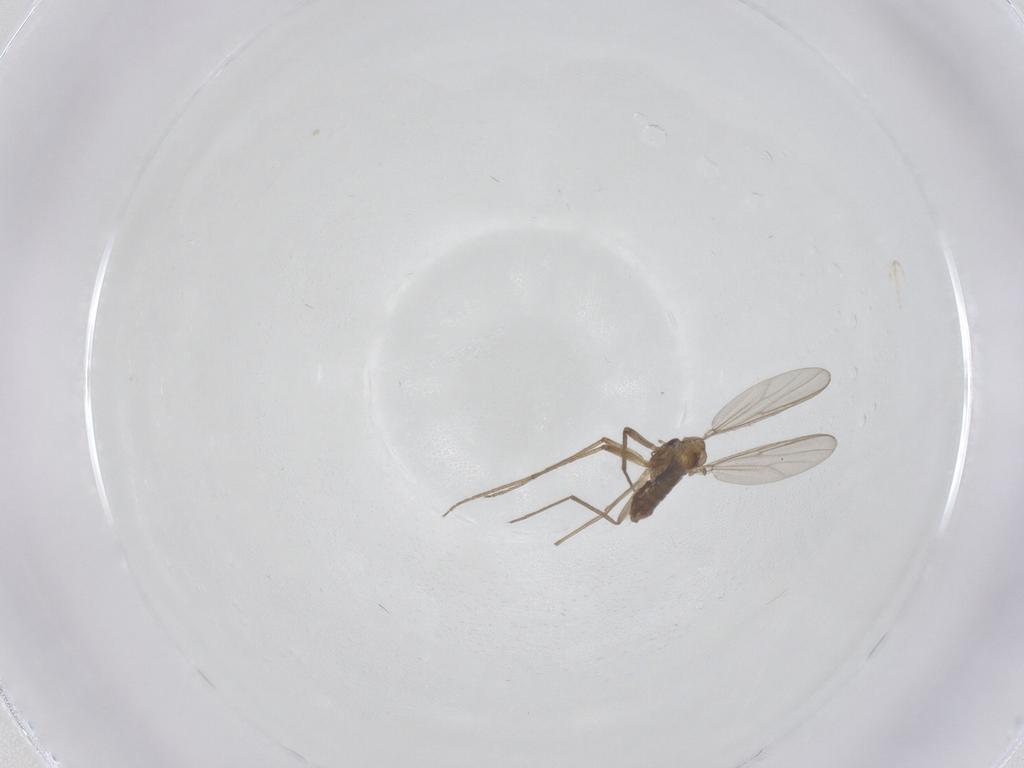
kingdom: Animalia
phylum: Arthropoda
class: Insecta
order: Diptera
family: Chironomidae
